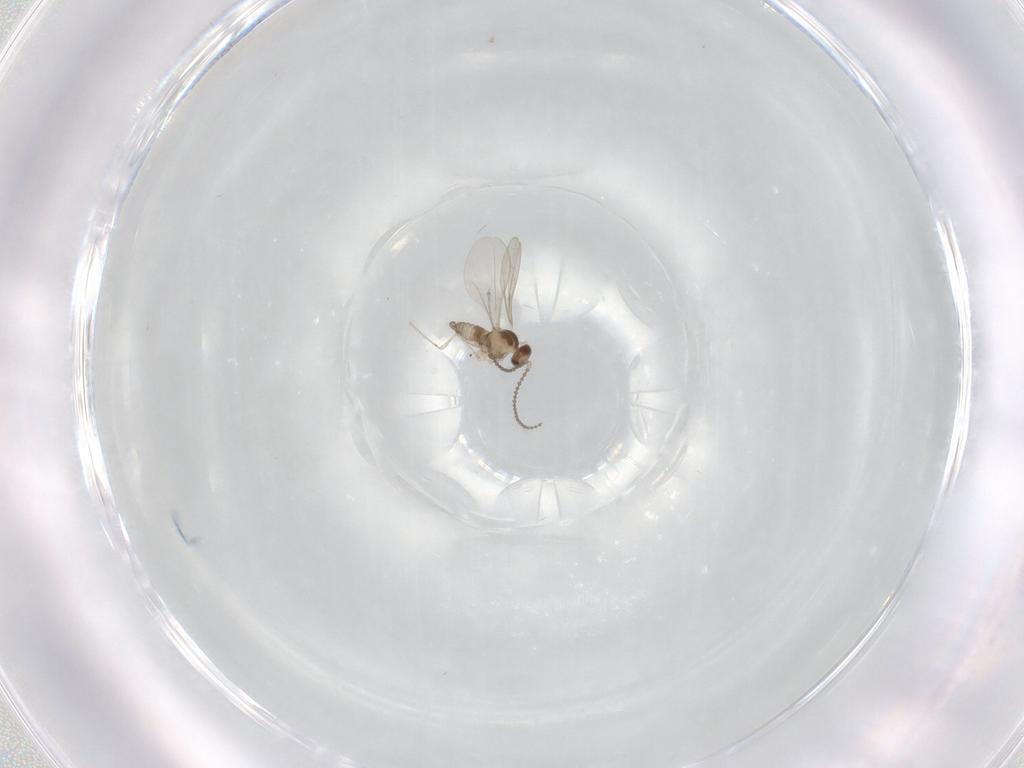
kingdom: Animalia
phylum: Arthropoda
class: Insecta
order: Diptera
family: Cecidomyiidae
